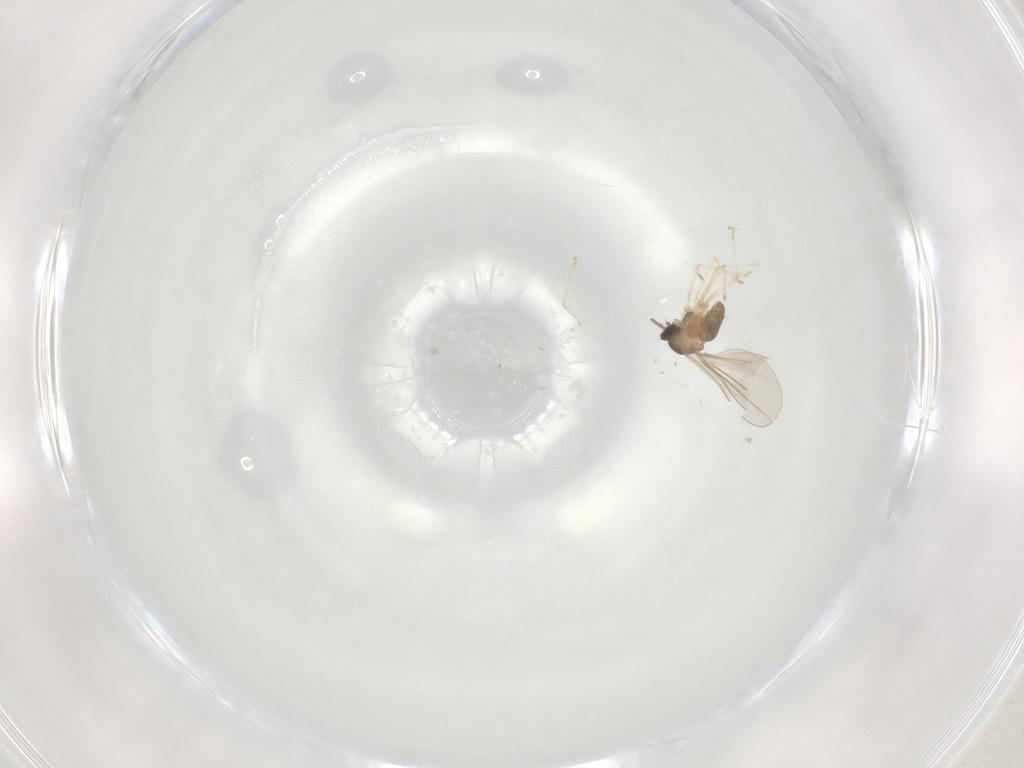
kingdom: Animalia
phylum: Arthropoda
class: Insecta
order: Diptera
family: Cecidomyiidae
